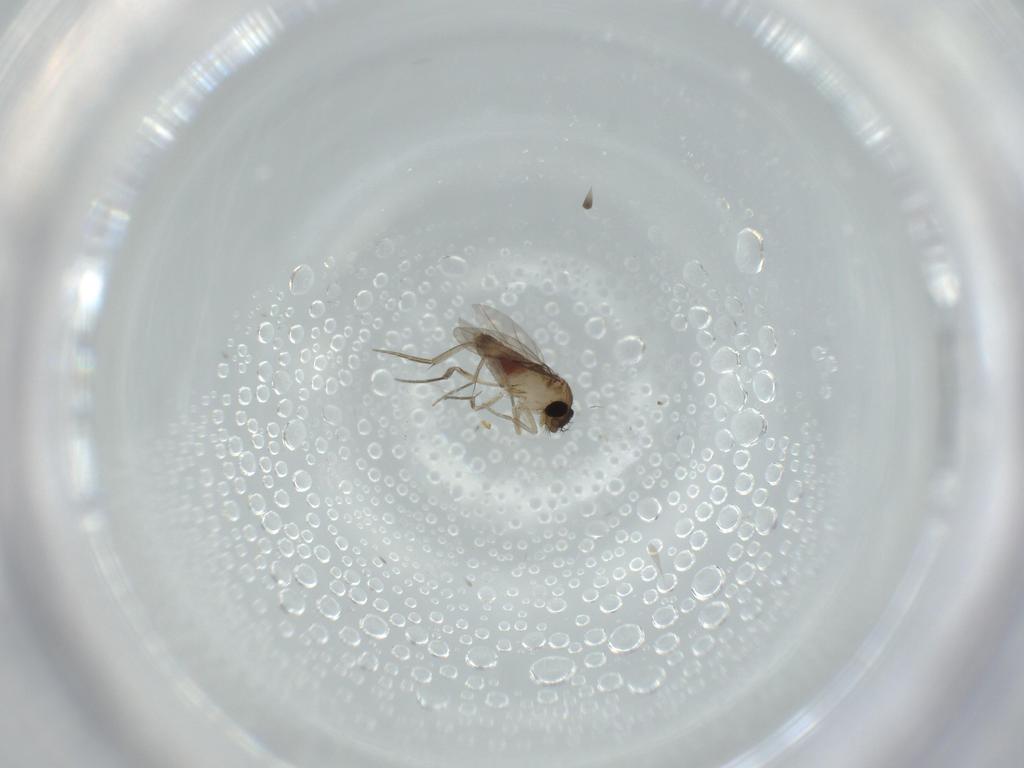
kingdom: Animalia
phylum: Arthropoda
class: Insecta
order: Diptera
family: Phoridae
